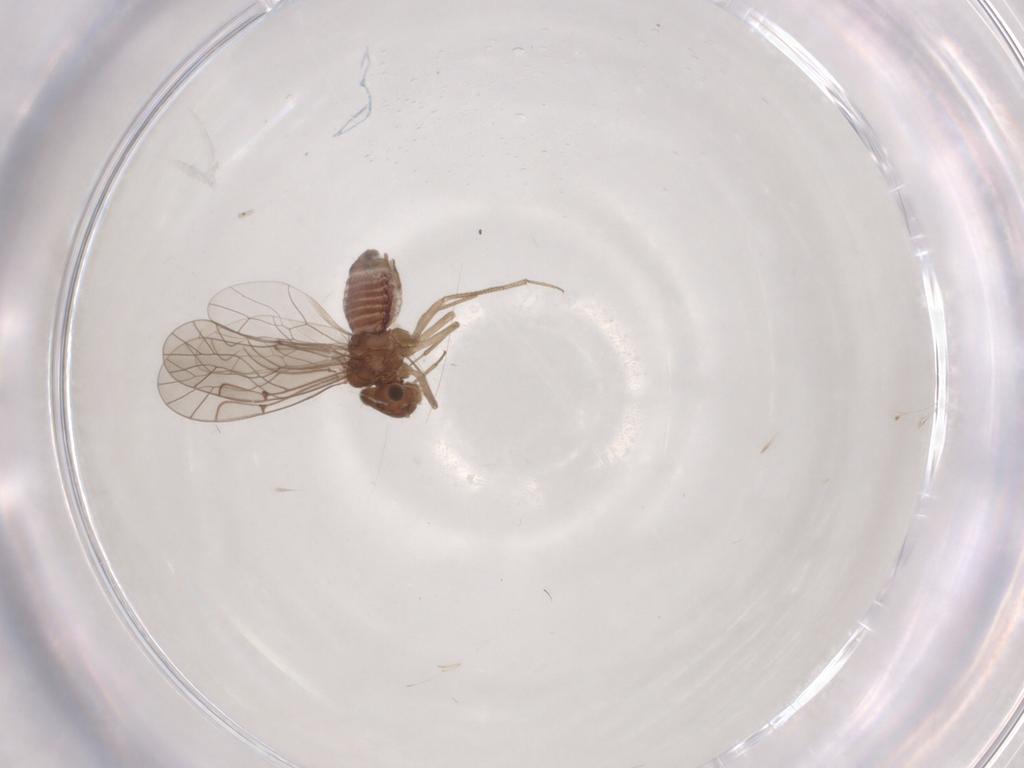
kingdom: Animalia
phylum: Arthropoda
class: Insecta
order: Psocodea
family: Lachesillidae
